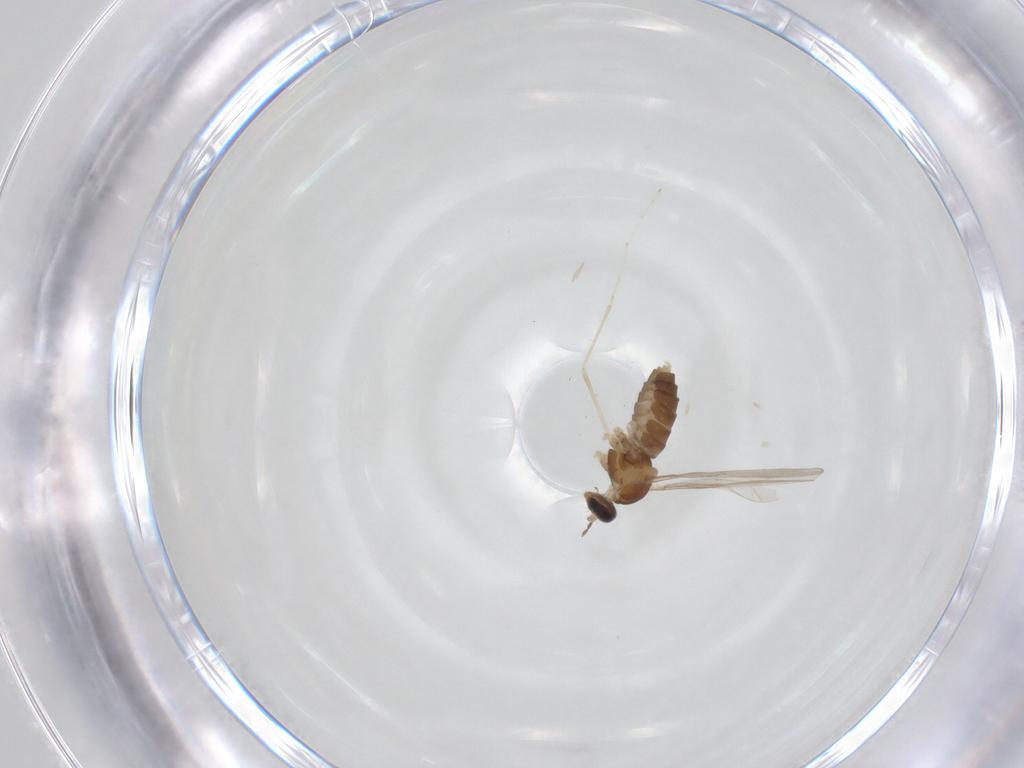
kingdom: Animalia
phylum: Arthropoda
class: Insecta
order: Diptera
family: Cecidomyiidae
